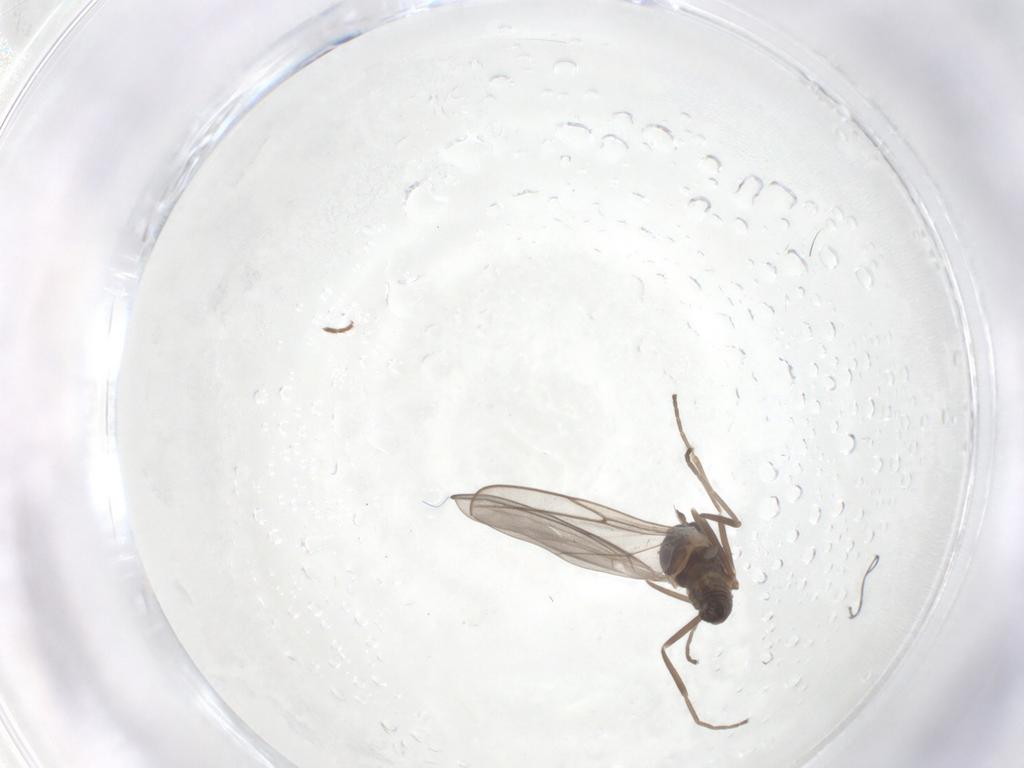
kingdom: Animalia
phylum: Arthropoda
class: Insecta
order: Diptera
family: Cecidomyiidae
